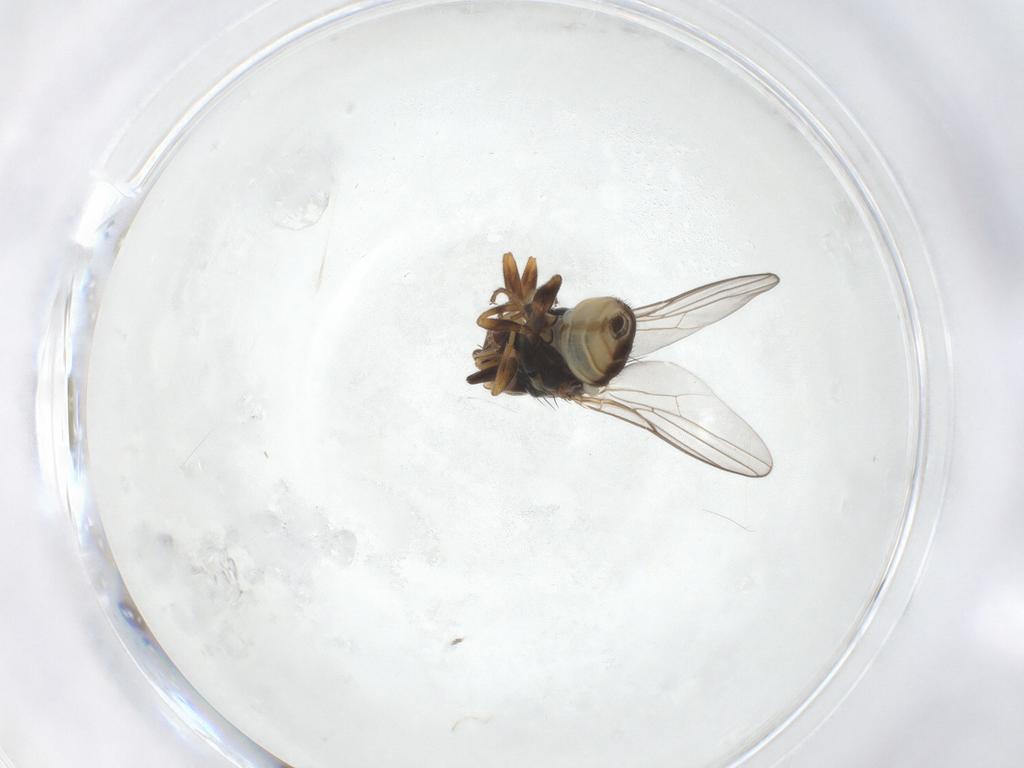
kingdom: Animalia
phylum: Arthropoda
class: Insecta
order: Diptera
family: Chloropidae
